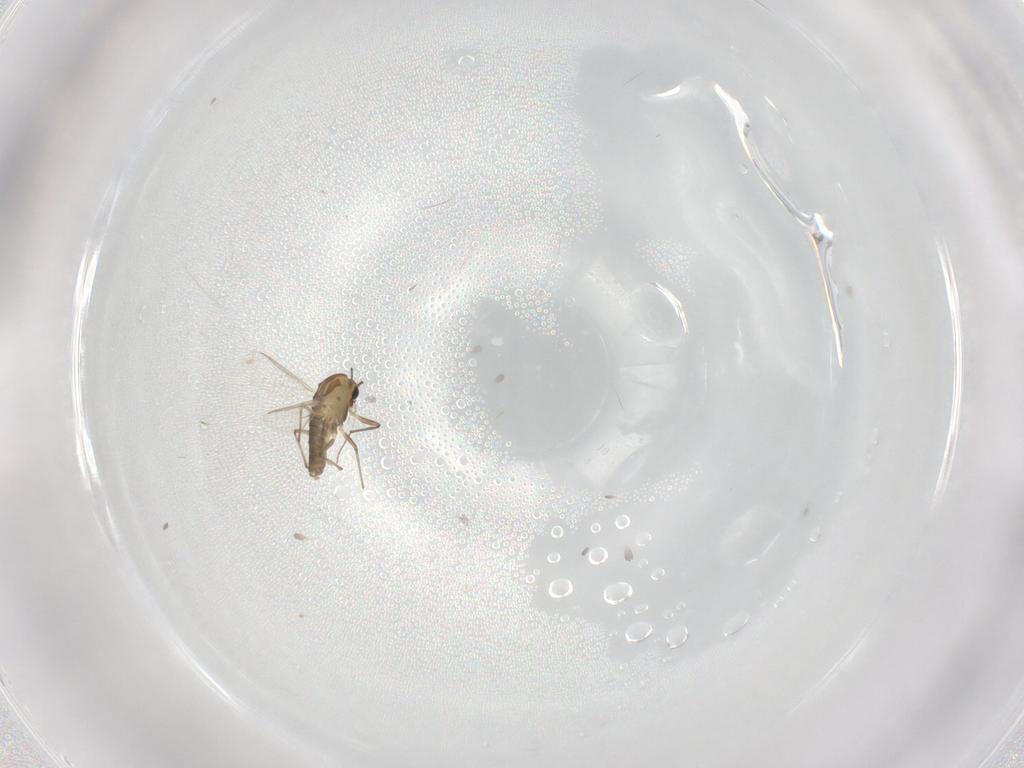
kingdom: Animalia
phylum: Arthropoda
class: Insecta
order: Diptera
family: Chironomidae
